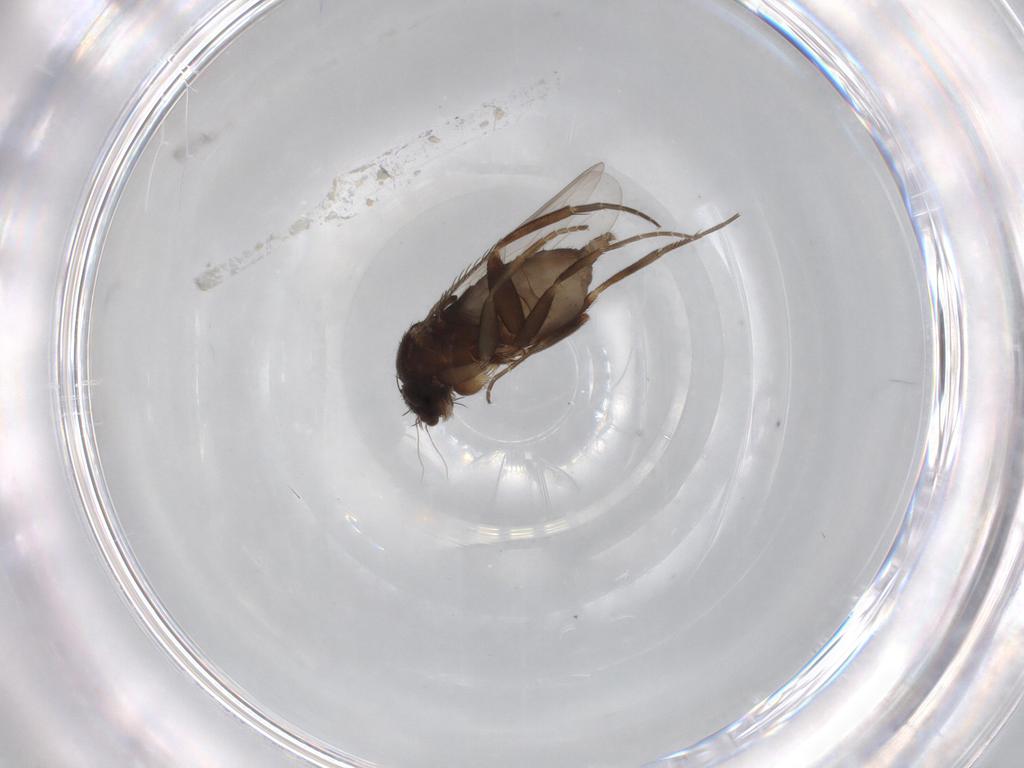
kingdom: Animalia
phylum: Arthropoda
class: Insecta
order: Diptera
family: Phoridae
